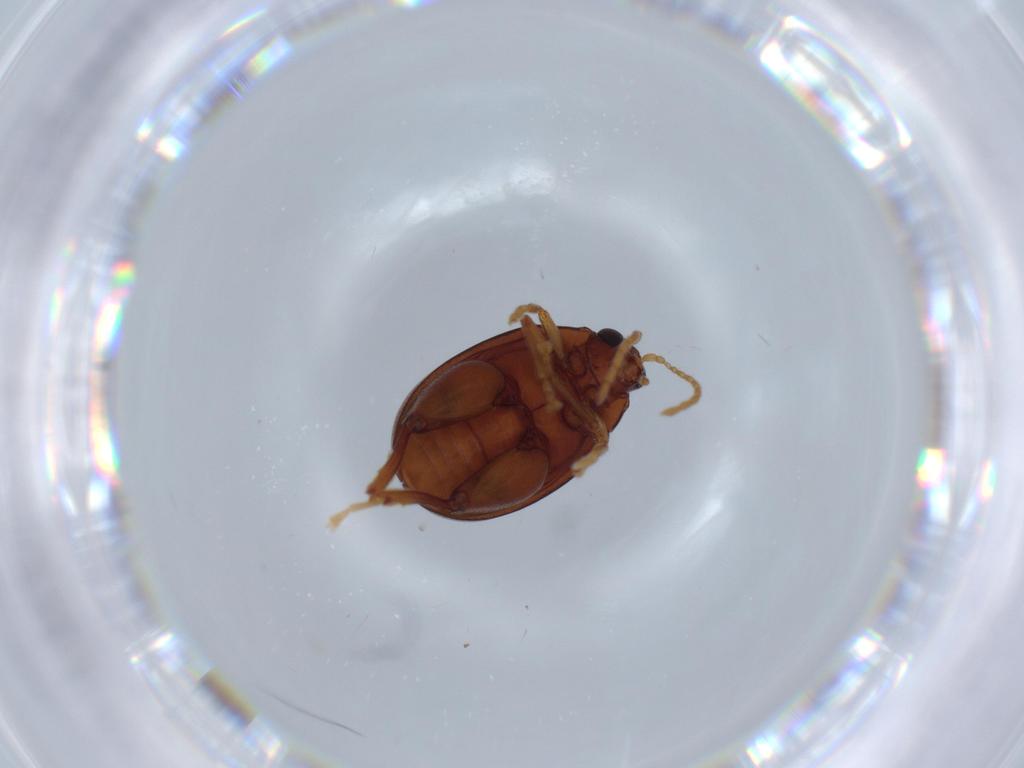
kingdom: Animalia
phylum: Arthropoda
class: Insecta
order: Coleoptera
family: Chrysomelidae
